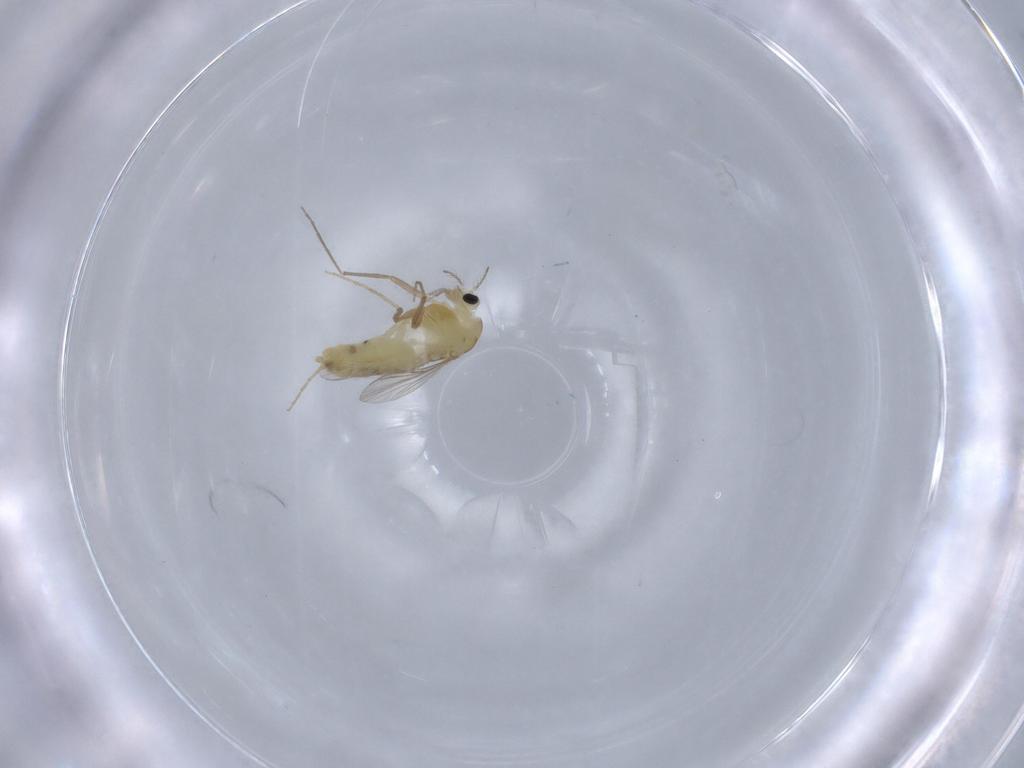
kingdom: Animalia
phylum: Arthropoda
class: Insecta
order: Diptera
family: Chironomidae
